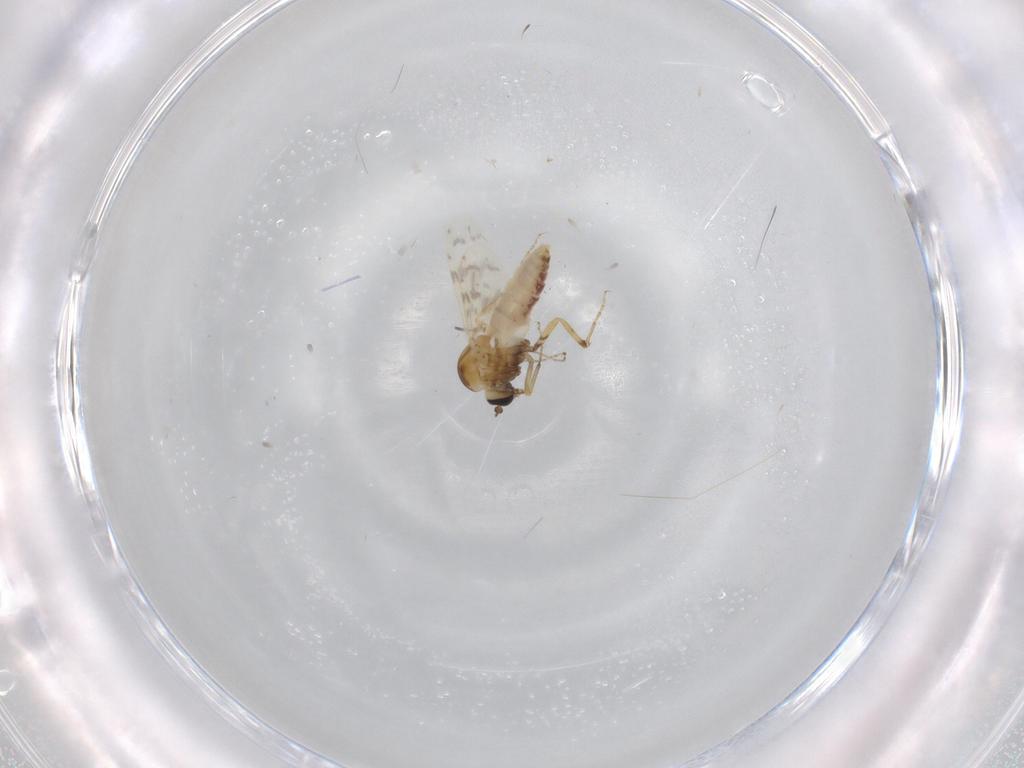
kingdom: Animalia
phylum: Arthropoda
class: Insecta
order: Diptera
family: Ceratopogonidae
